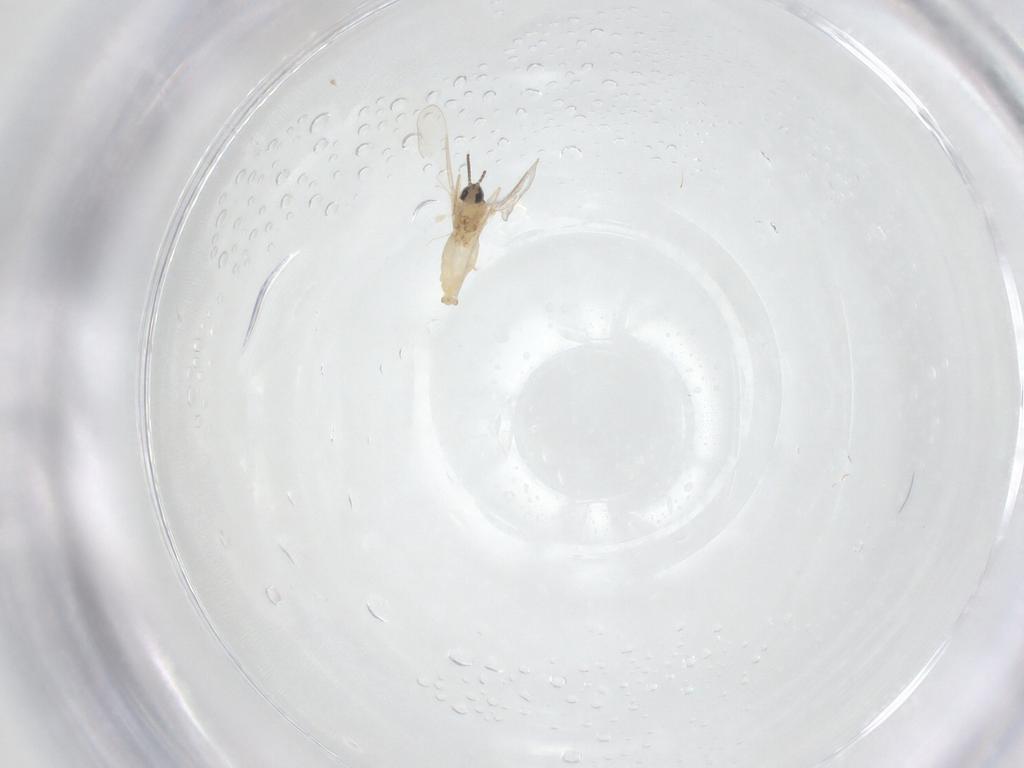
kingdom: Animalia
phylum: Arthropoda
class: Insecta
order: Diptera
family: Cecidomyiidae
